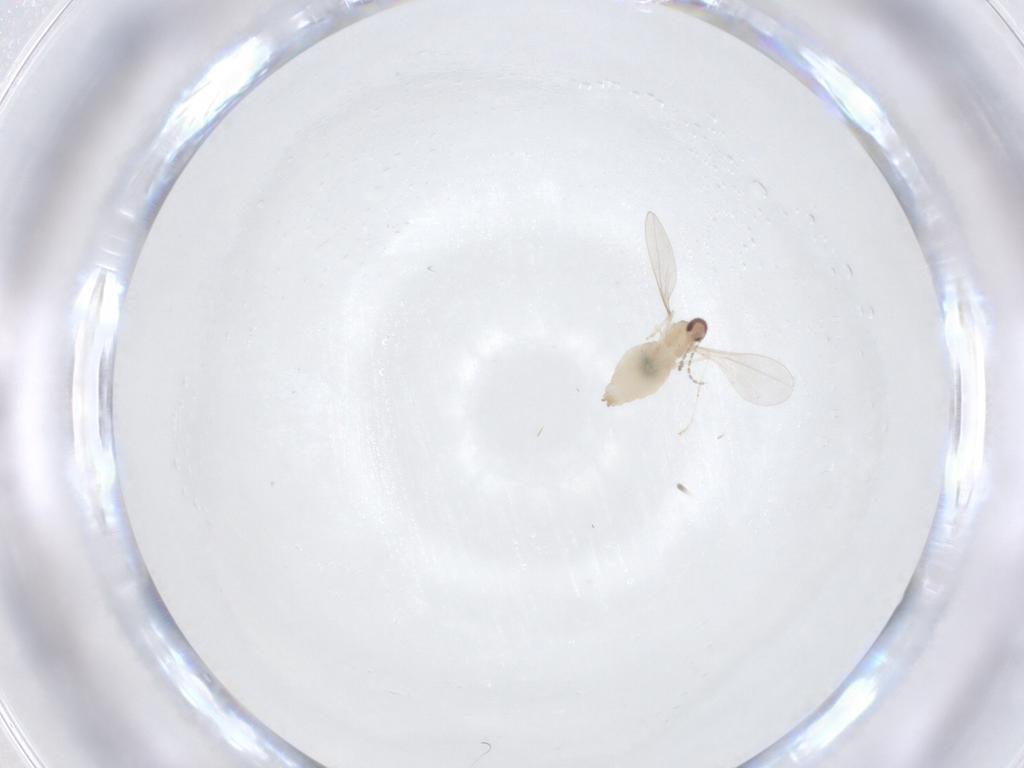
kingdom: Animalia
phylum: Arthropoda
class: Insecta
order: Diptera
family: Cecidomyiidae
